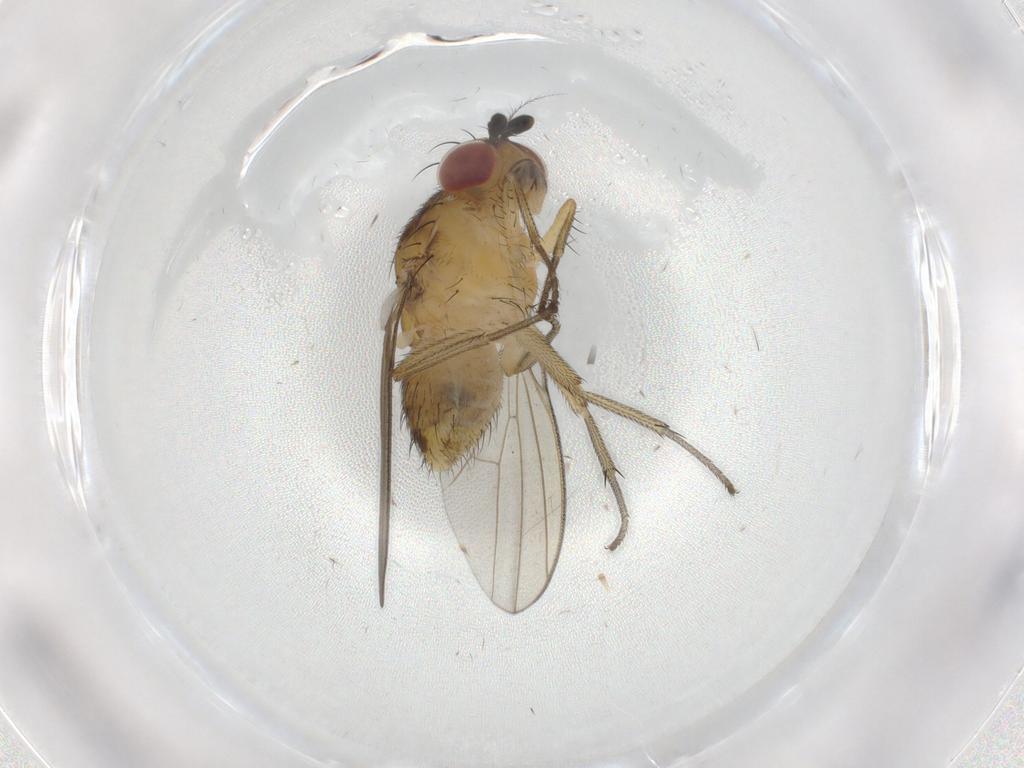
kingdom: Animalia
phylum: Arthropoda
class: Insecta
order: Diptera
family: Lauxaniidae
